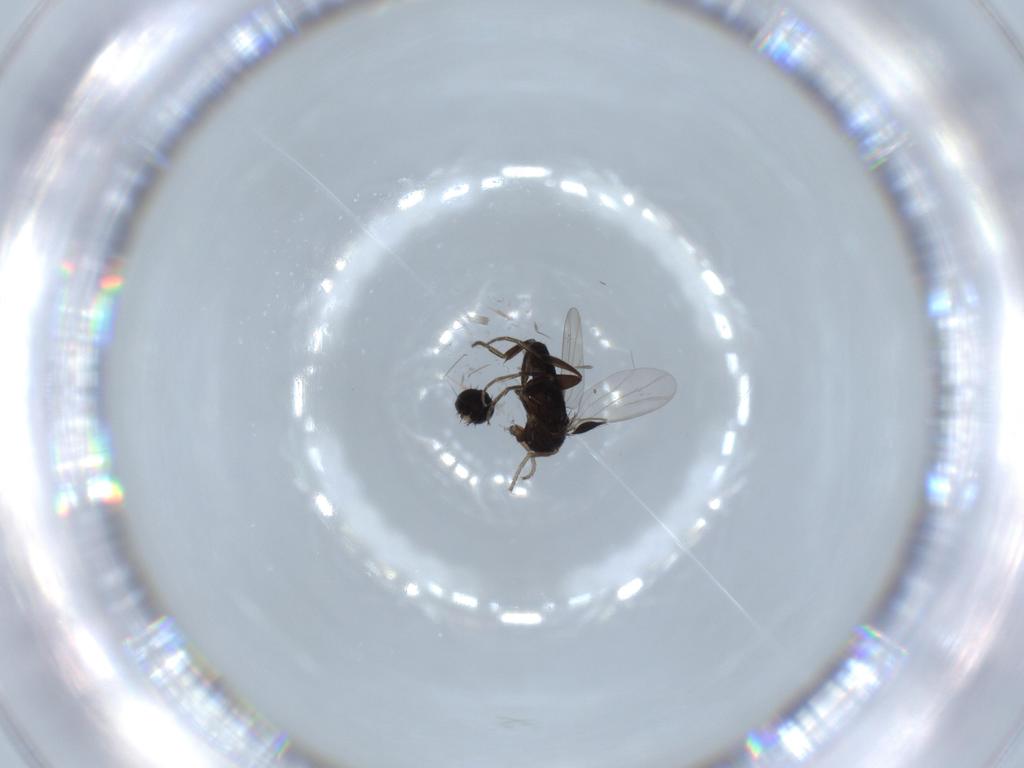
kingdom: Animalia
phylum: Arthropoda
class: Insecta
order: Diptera
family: Phoridae
